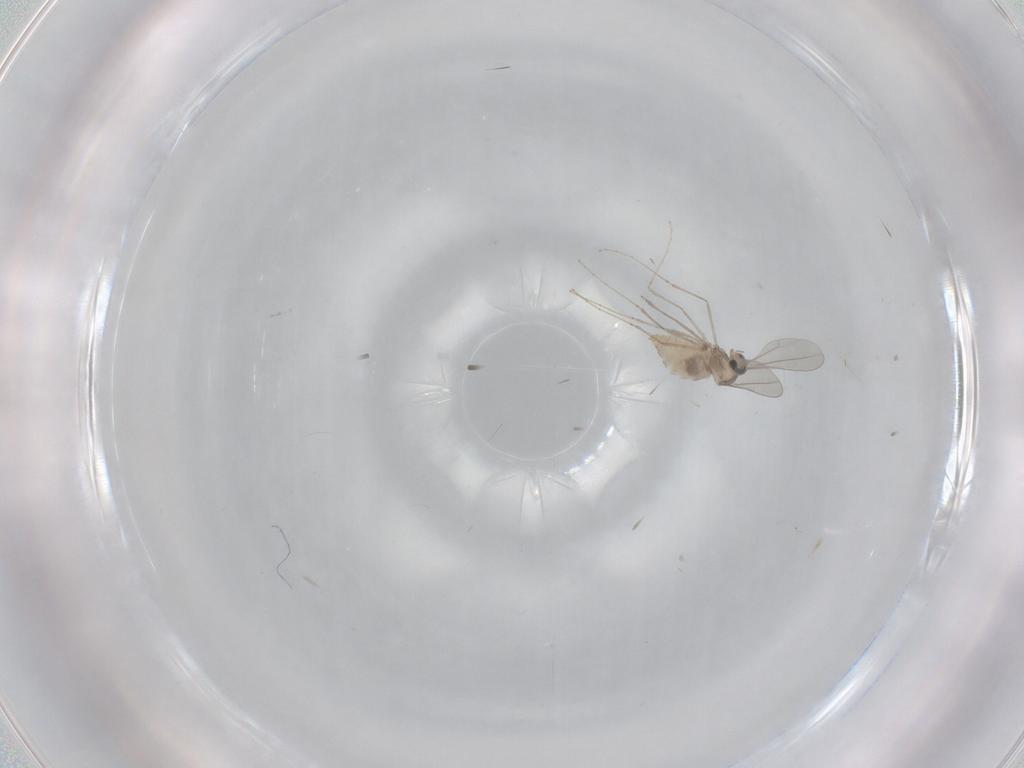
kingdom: Animalia
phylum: Arthropoda
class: Insecta
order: Diptera
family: Cecidomyiidae
